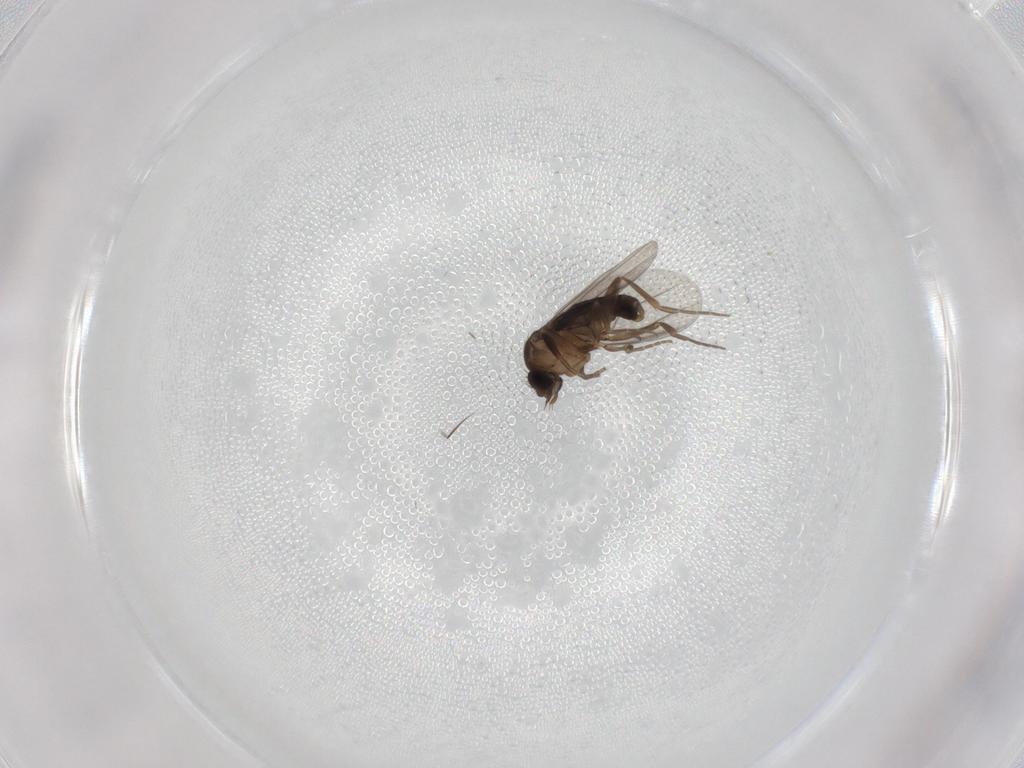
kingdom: Animalia
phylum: Arthropoda
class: Insecta
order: Diptera
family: Phoridae
